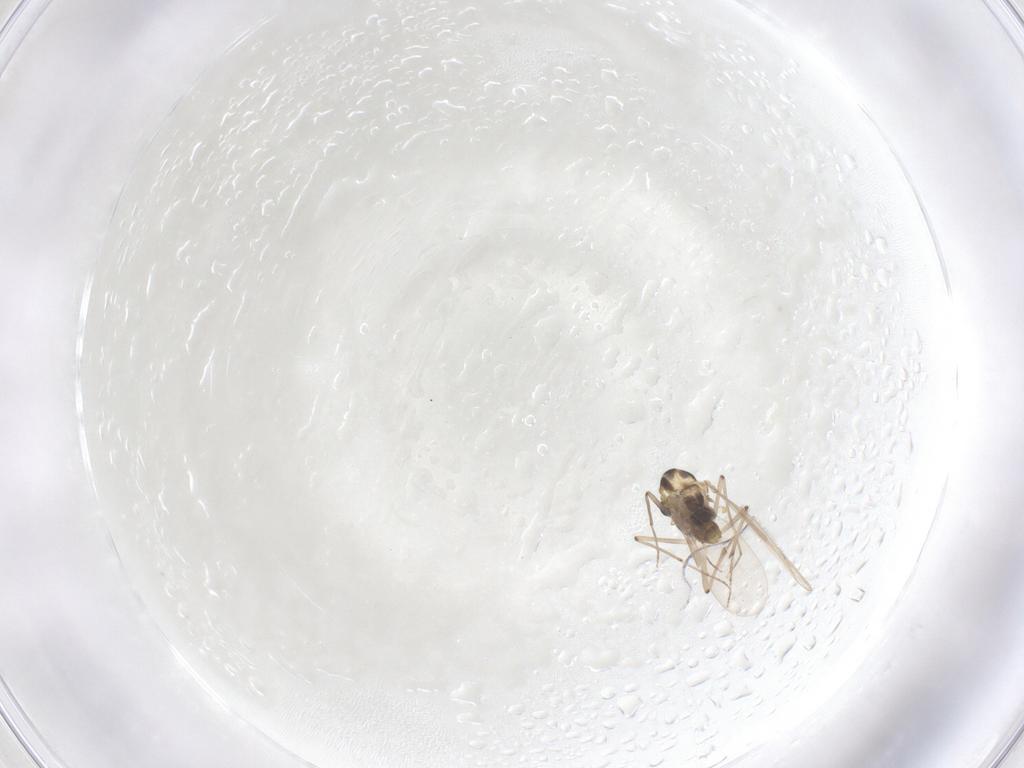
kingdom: Animalia
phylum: Arthropoda
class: Insecta
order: Diptera
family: Chironomidae
